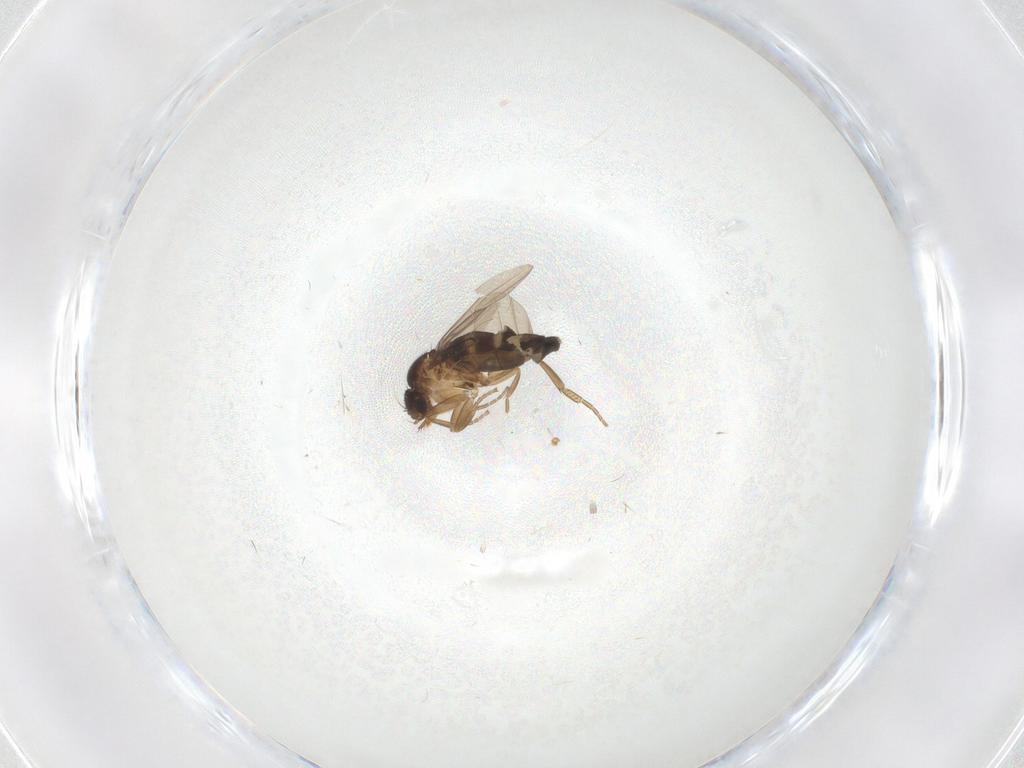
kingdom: Animalia
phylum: Arthropoda
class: Insecta
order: Diptera
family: Phoridae
